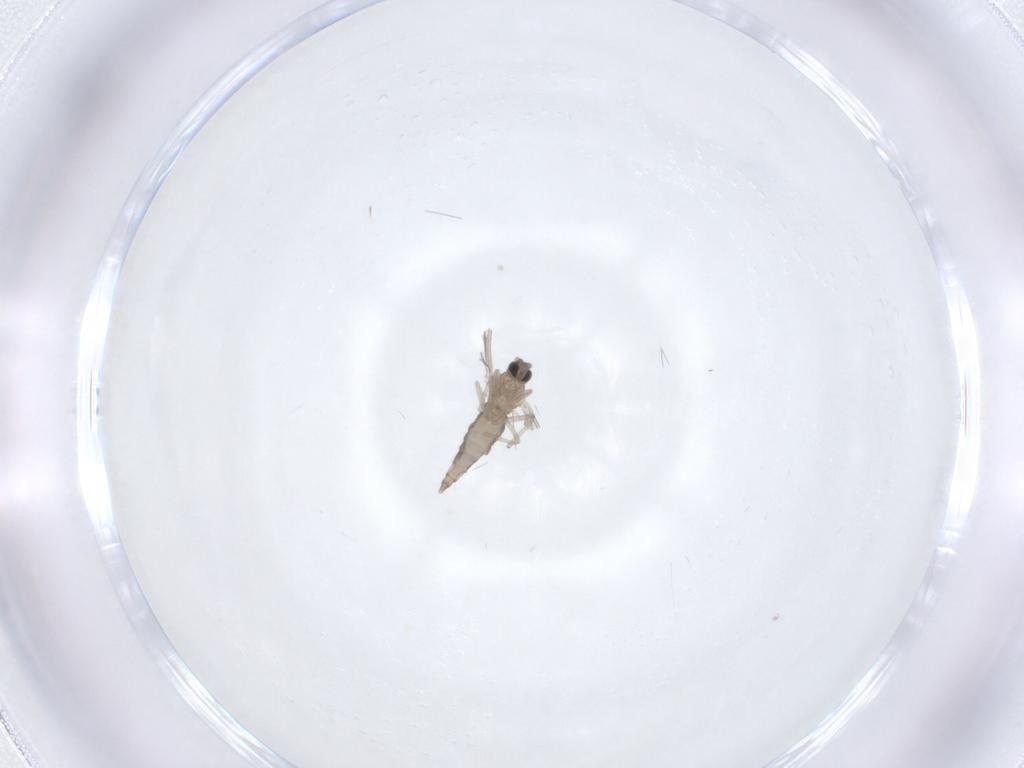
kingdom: Animalia
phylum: Arthropoda
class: Insecta
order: Diptera
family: Cecidomyiidae
